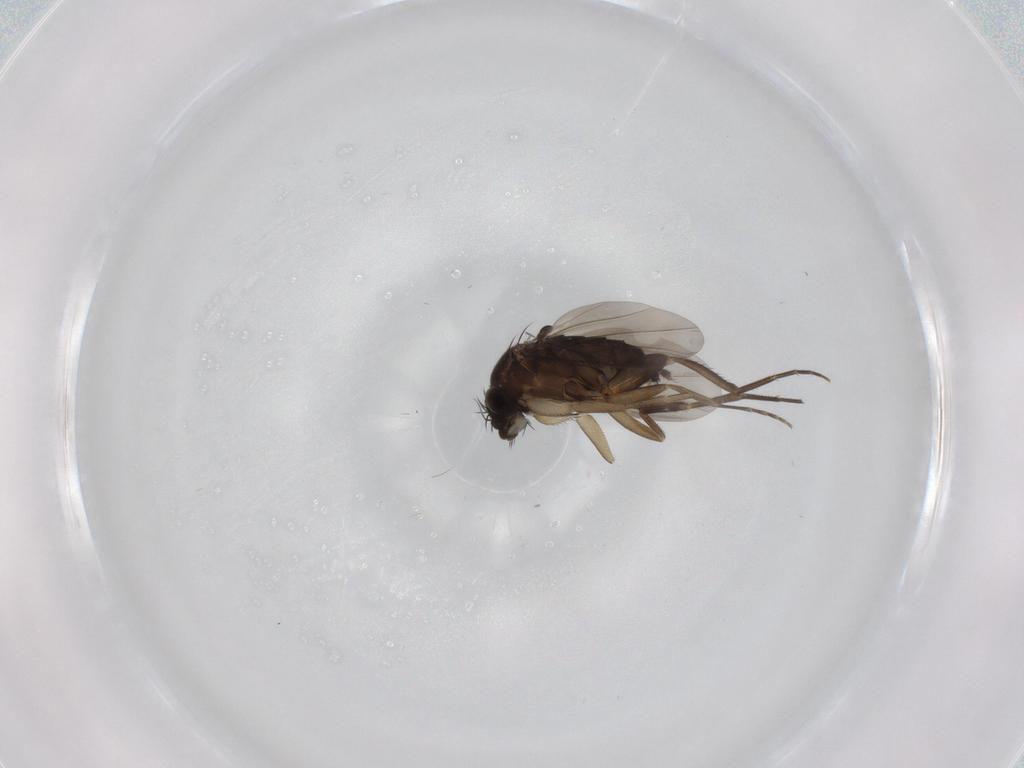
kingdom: Animalia
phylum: Arthropoda
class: Insecta
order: Diptera
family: Phoridae
